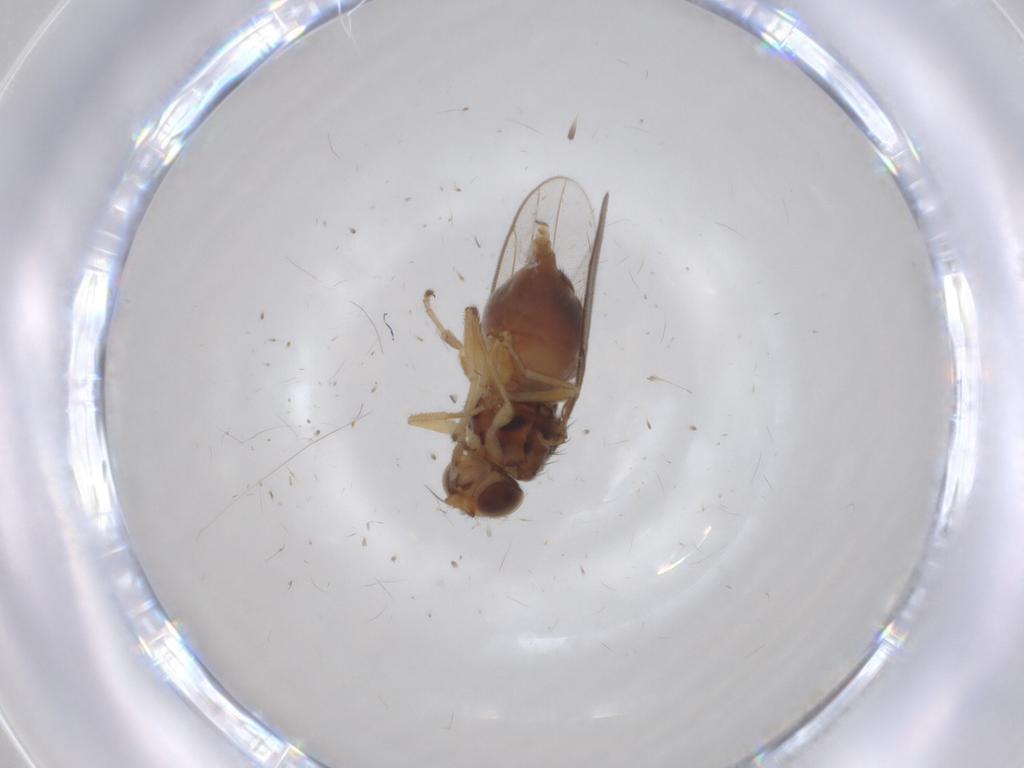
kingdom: Animalia
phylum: Arthropoda
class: Insecta
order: Diptera
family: Chloropidae
